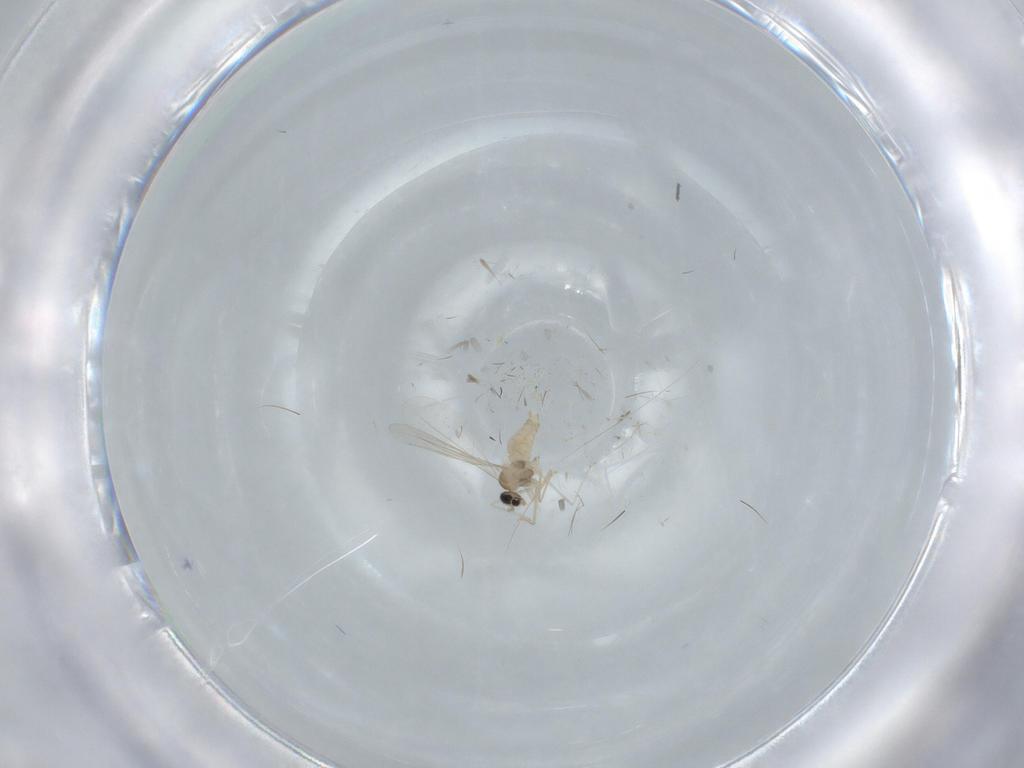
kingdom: Animalia
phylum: Arthropoda
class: Insecta
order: Diptera
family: Cecidomyiidae
